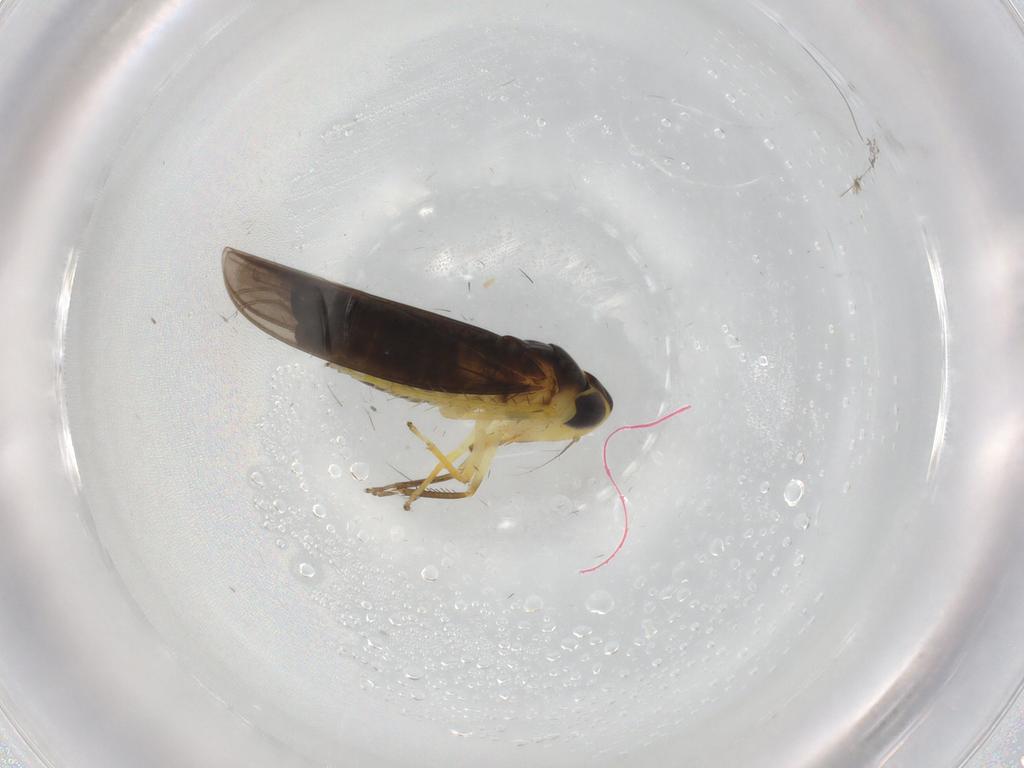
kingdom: Animalia
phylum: Arthropoda
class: Insecta
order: Hemiptera
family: Cicadellidae
